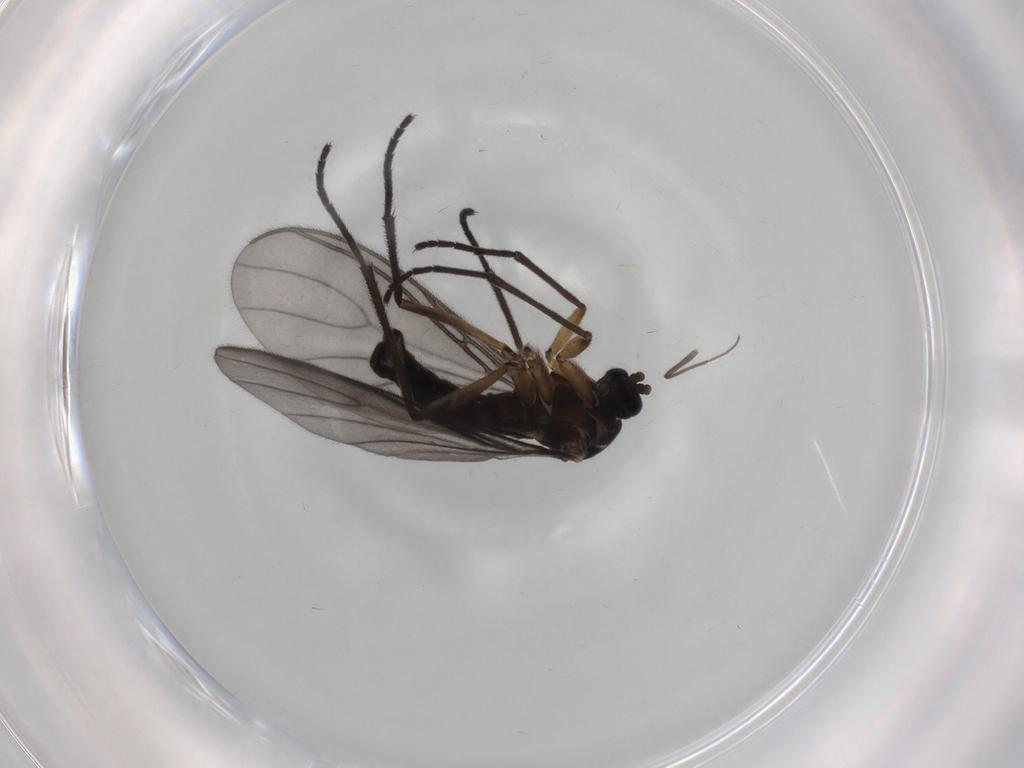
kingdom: Animalia
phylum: Arthropoda
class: Insecta
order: Diptera
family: Sciaridae
